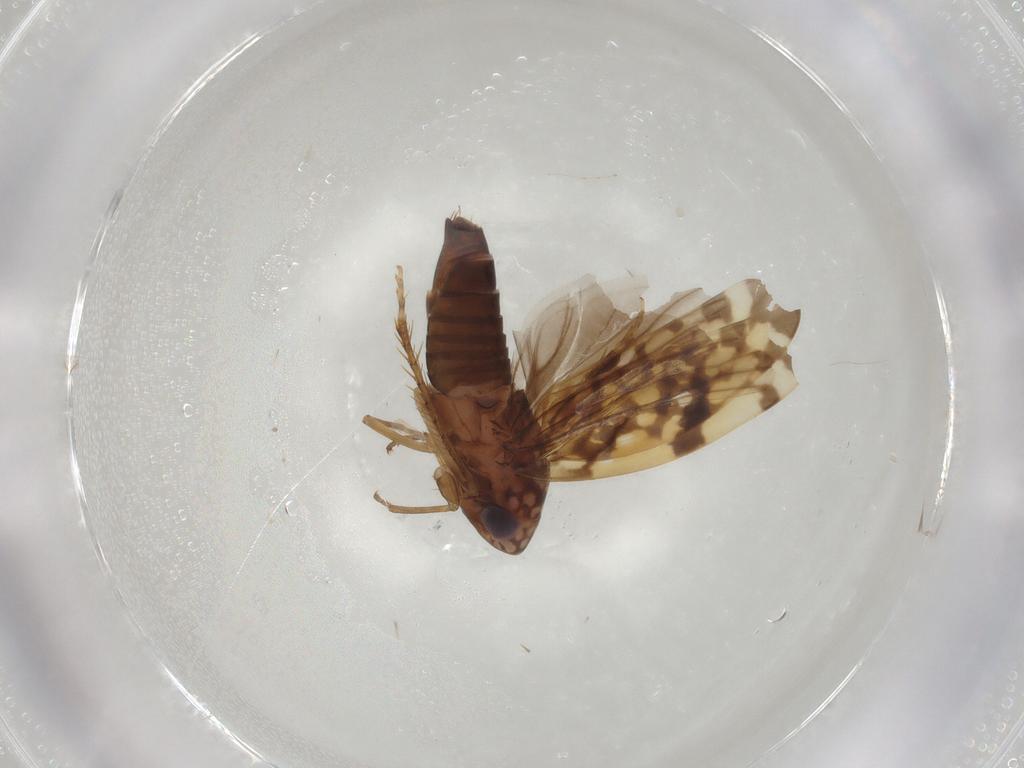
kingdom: Animalia
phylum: Arthropoda
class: Insecta
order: Hemiptera
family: Cicadellidae
